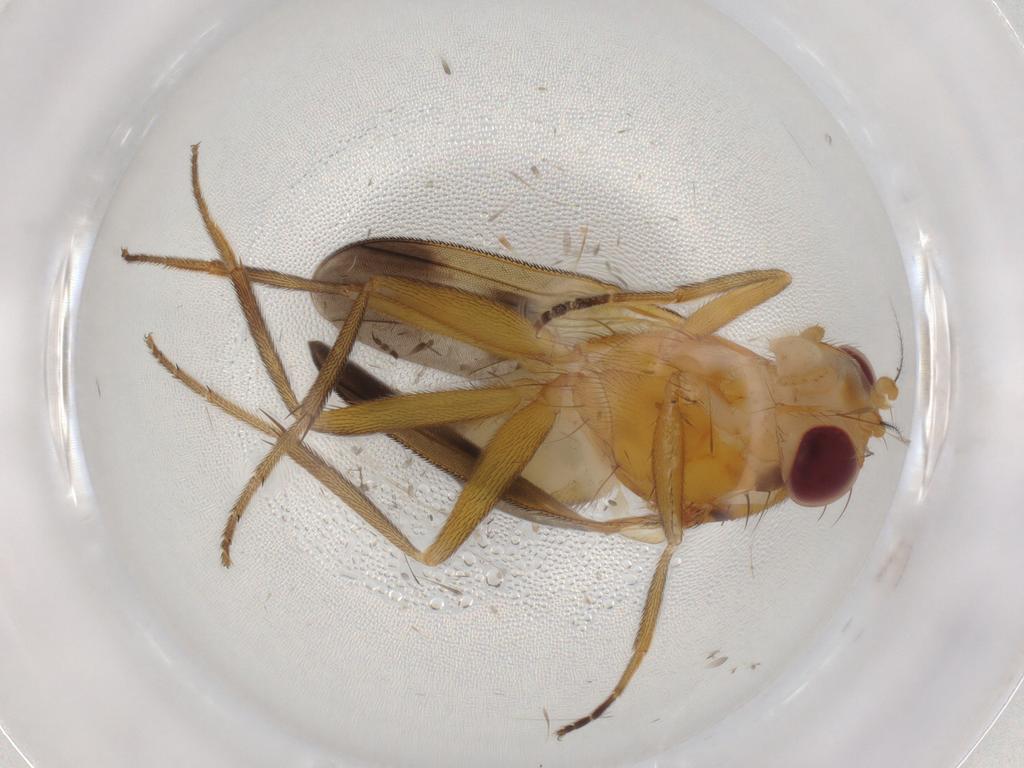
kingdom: Animalia
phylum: Arthropoda
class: Insecta
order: Diptera
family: Clusiidae
